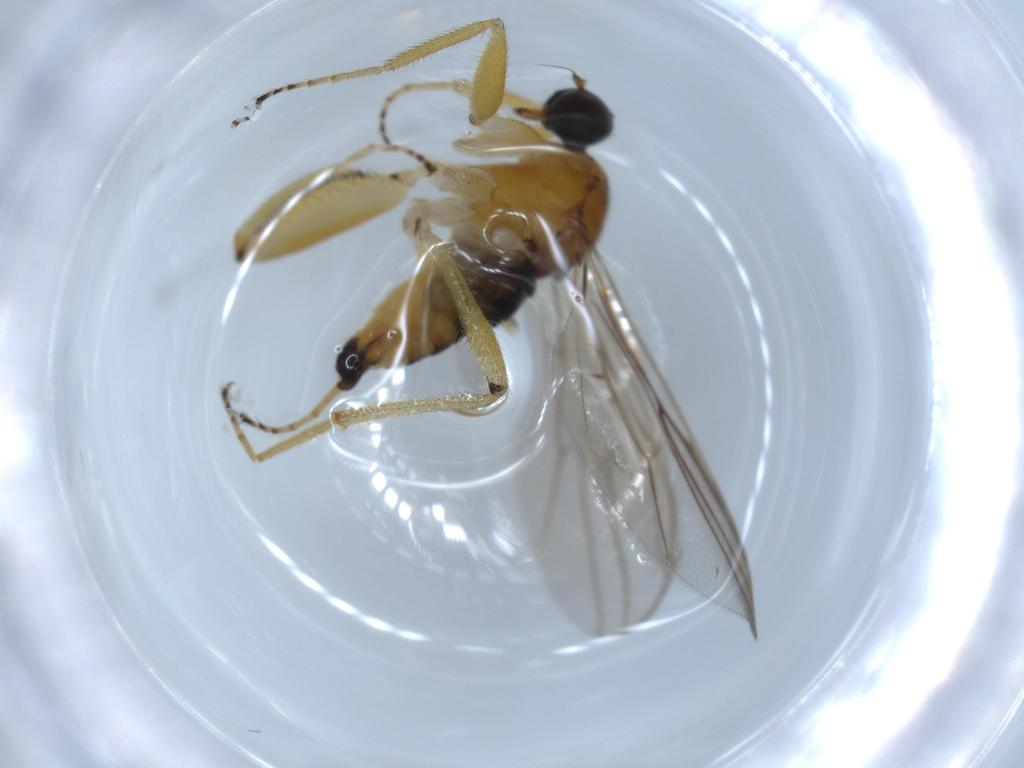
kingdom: Animalia
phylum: Arthropoda
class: Insecta
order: Diptera
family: Hybotidae
